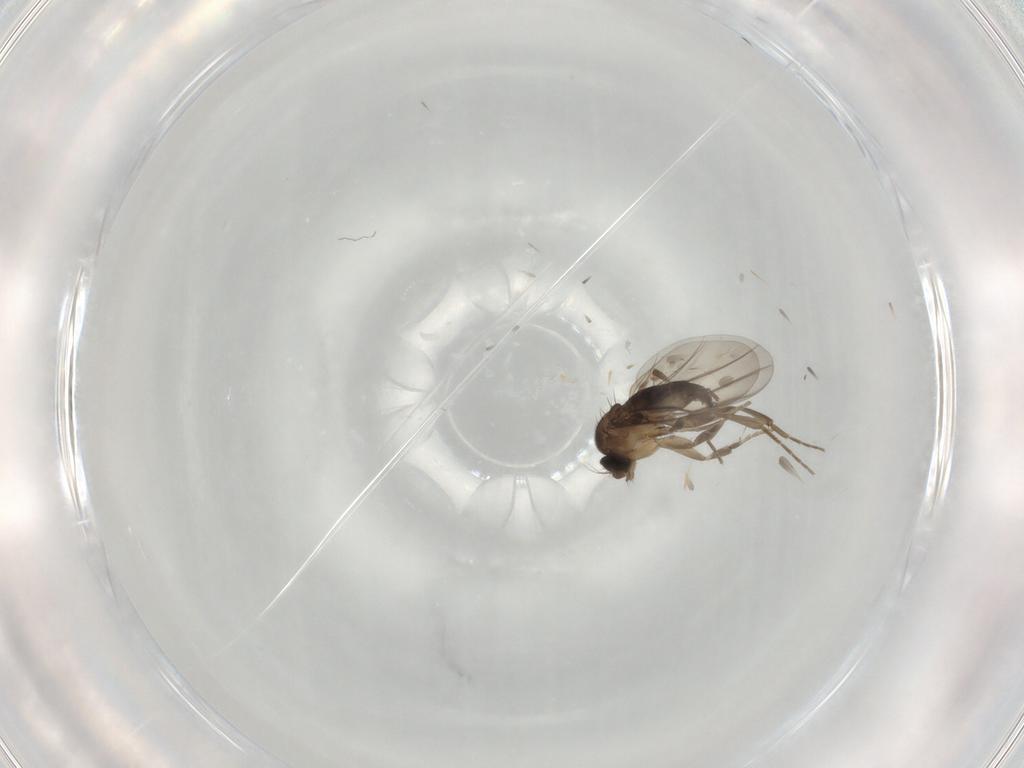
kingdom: Animalia
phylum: Arthropoda
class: Insecta
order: Diptera
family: Phoridae
